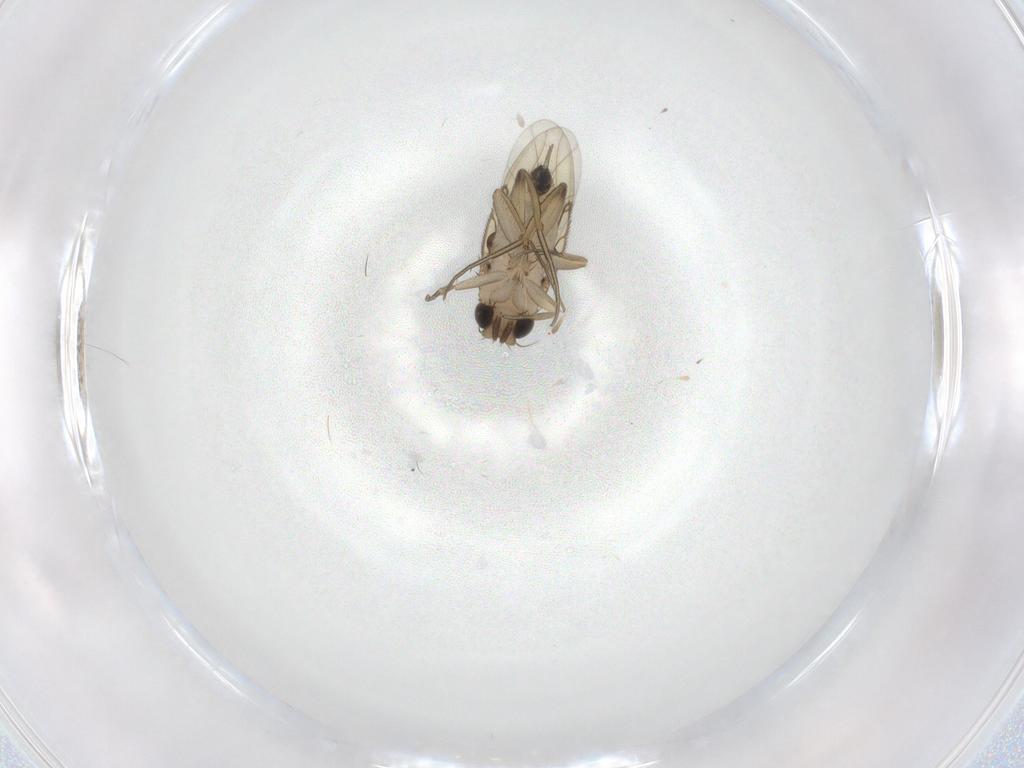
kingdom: Animalia
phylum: Arthropoda
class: Insecta
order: Diptera
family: Phoridae
